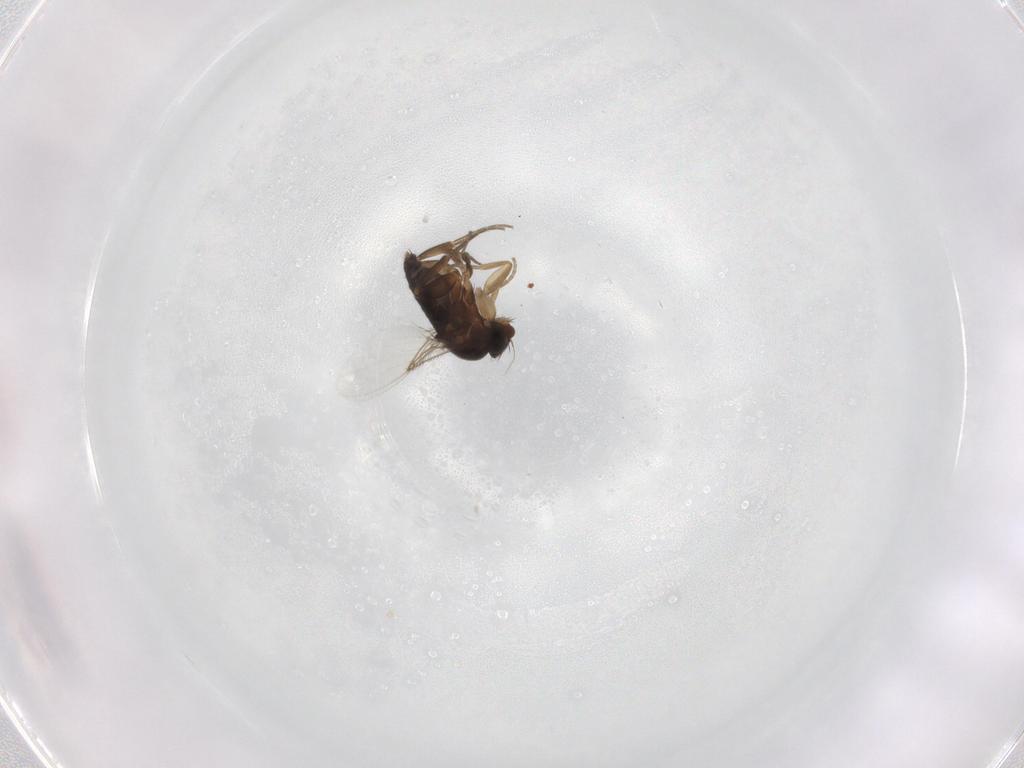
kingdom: Animalia
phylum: Arthropoda
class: Insecta
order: Diptera
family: Phoridae
